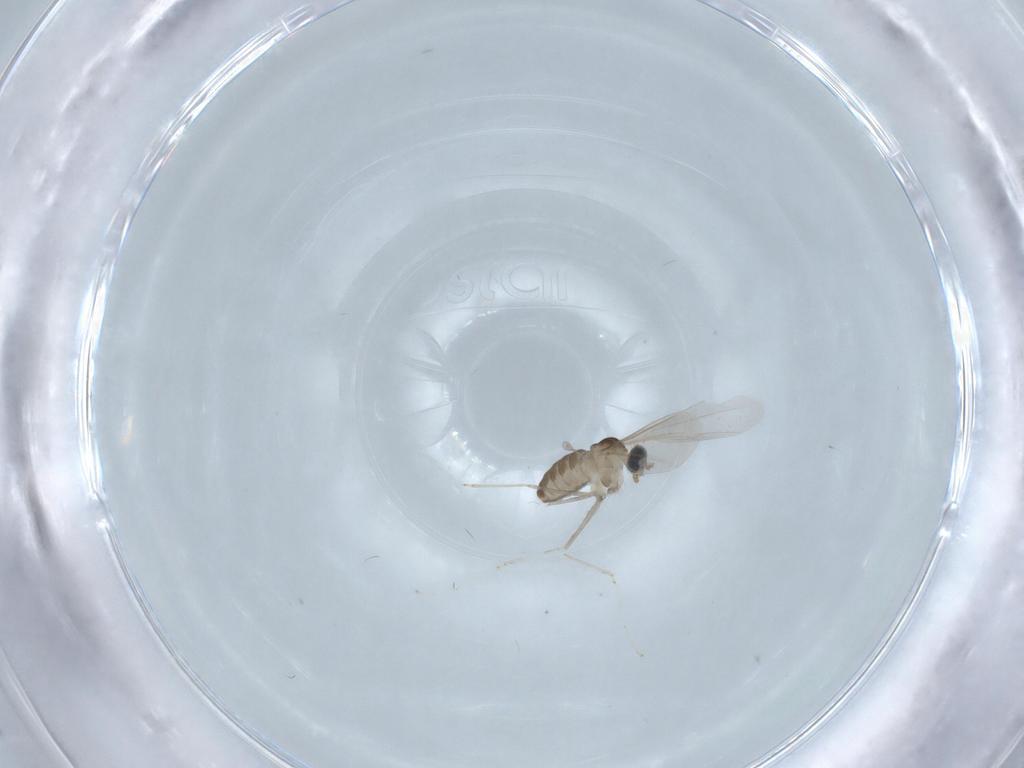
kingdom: Animalia
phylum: Arthropoda
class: Insecta
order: Diptera
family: Cecidomyiidae
